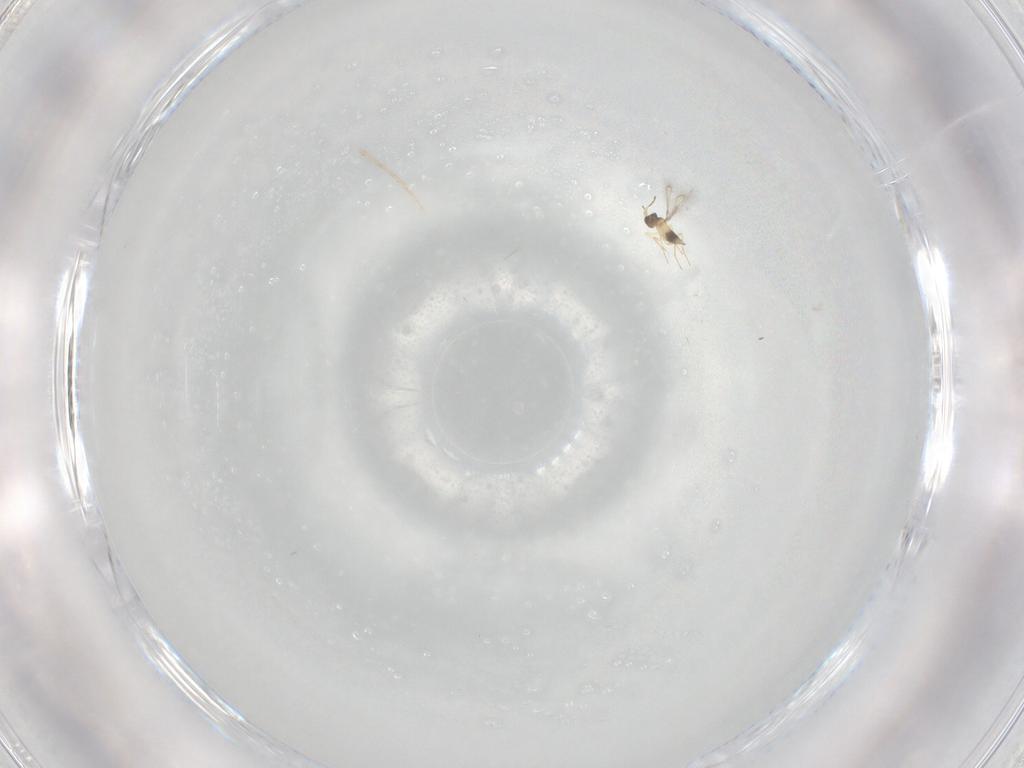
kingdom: Animalia
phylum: Arthropoda
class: Insecta
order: Hymenoptera
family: Mymaridae
